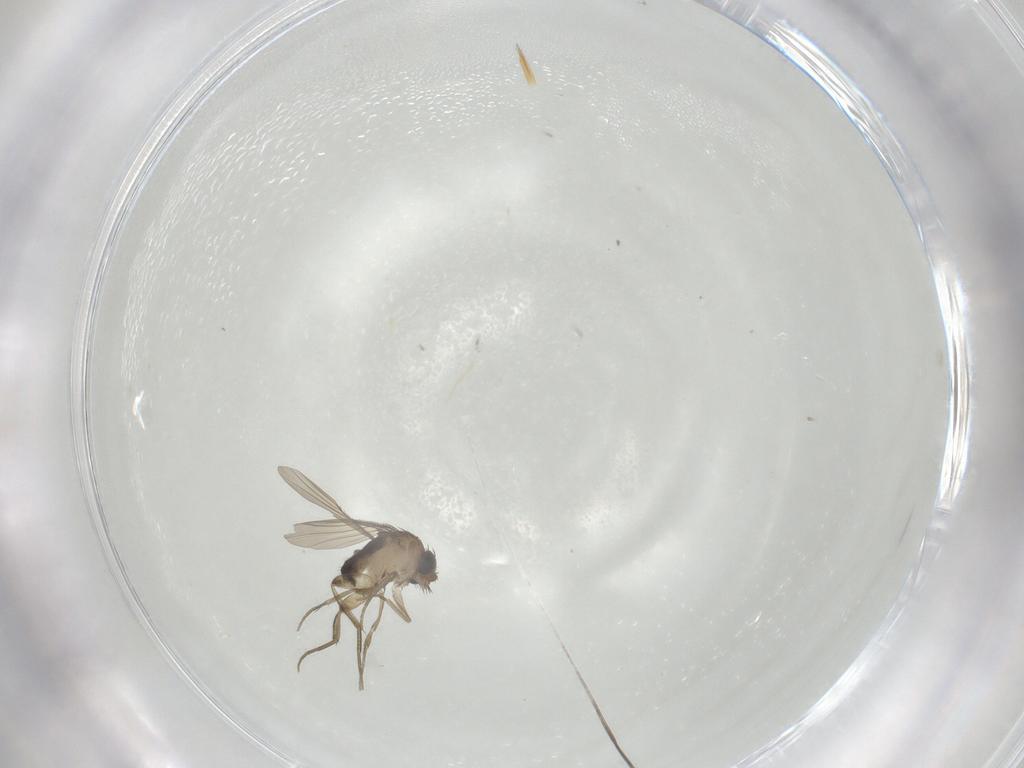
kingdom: Animalia
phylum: Arthropoda
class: Insecta
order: Diptera
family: Phoridae
